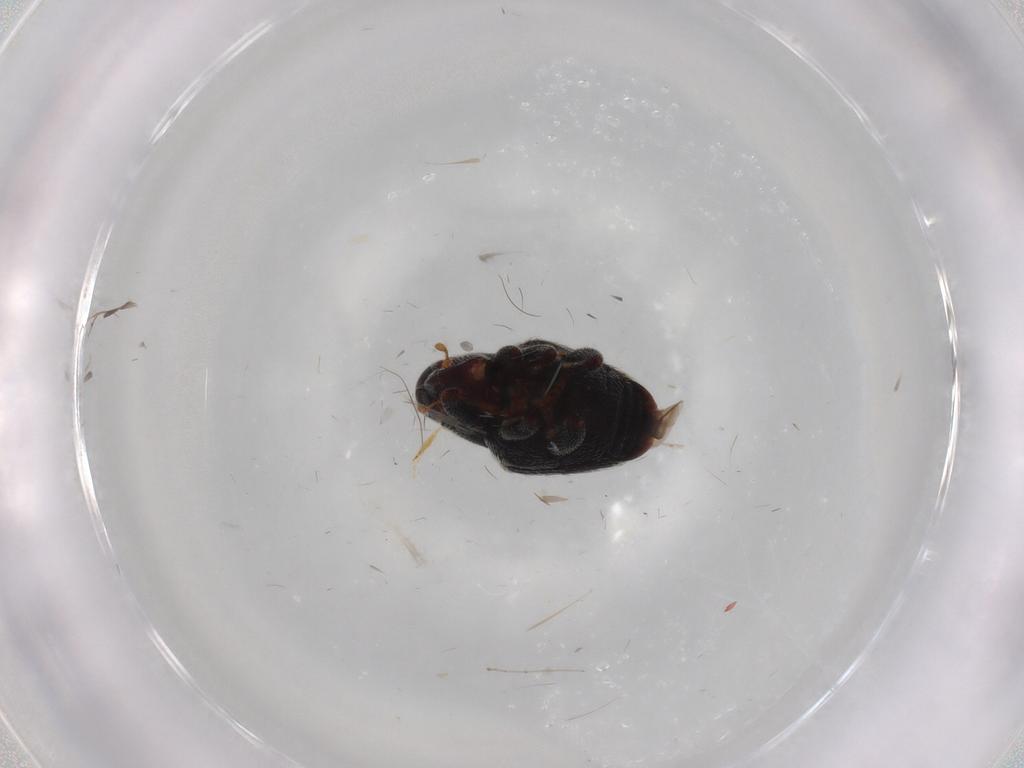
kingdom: Animalia
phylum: Arthropoda
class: Insecta
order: Coleoptera
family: Curculionidae
